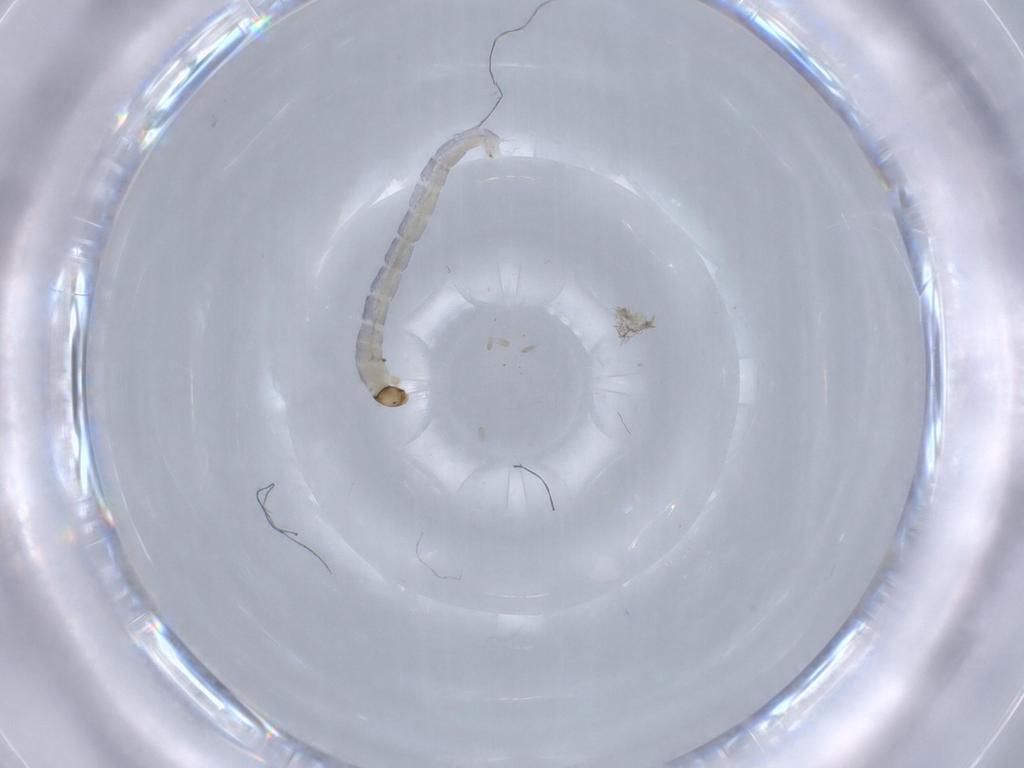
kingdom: Animalia
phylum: Arthropoda
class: Insecta
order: Diptera
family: Chironomidae
